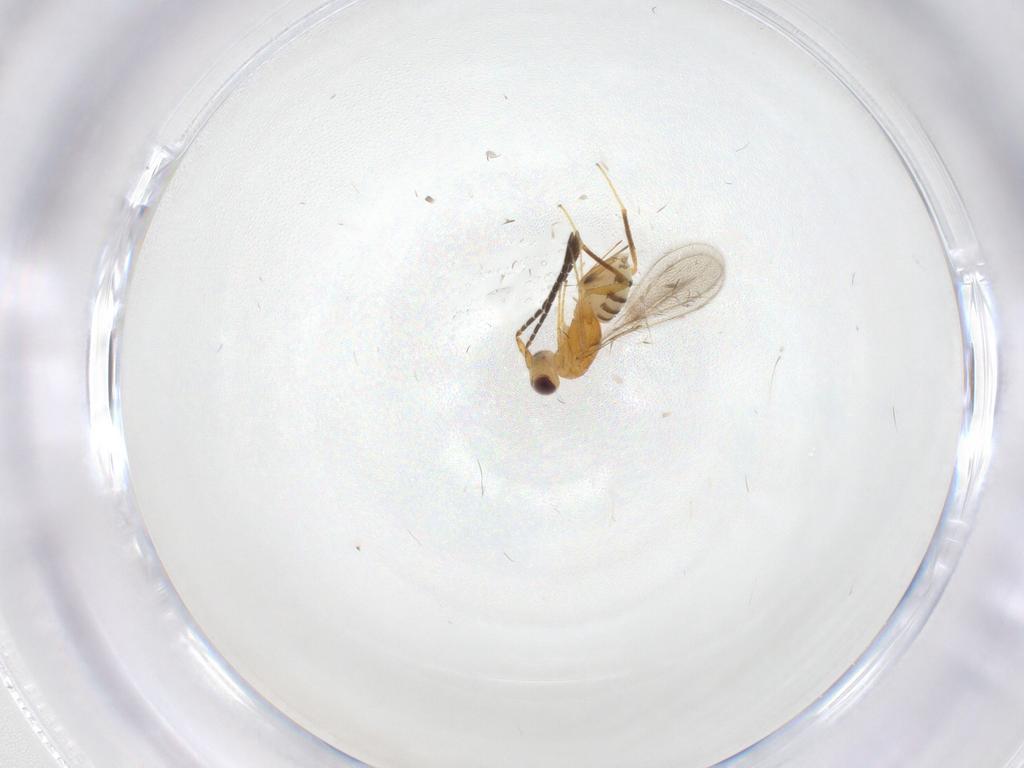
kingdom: Animalia
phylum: Arthropoda
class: Insecta
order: Hymenoptera
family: Mymaridae
